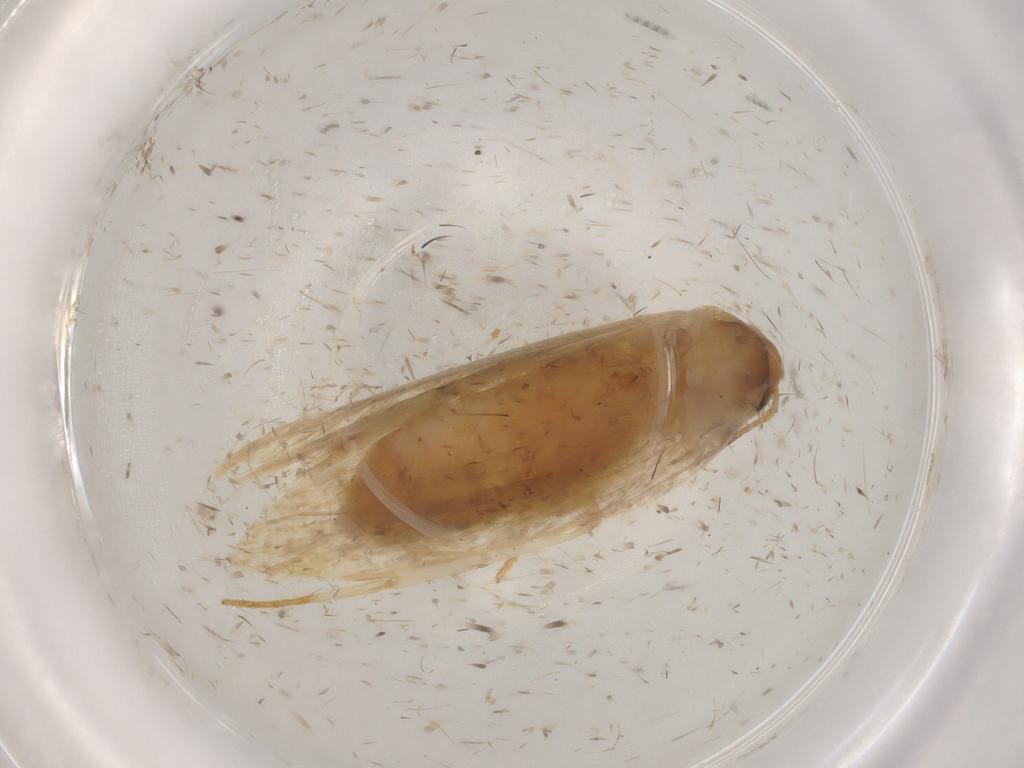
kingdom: Animalia
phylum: Arthropoda
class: Insecta
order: Lepidoptera
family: Depressariidae
